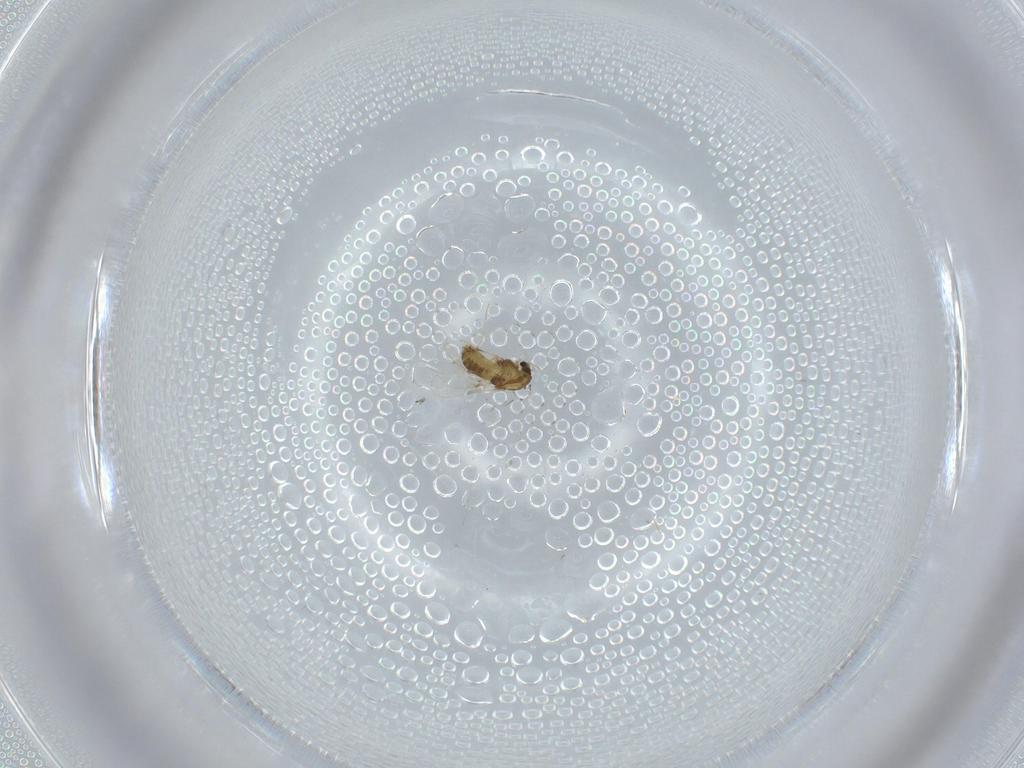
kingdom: Animalia
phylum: Arthropoda
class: Insecta
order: Diptera
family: Sphaeroceridae
